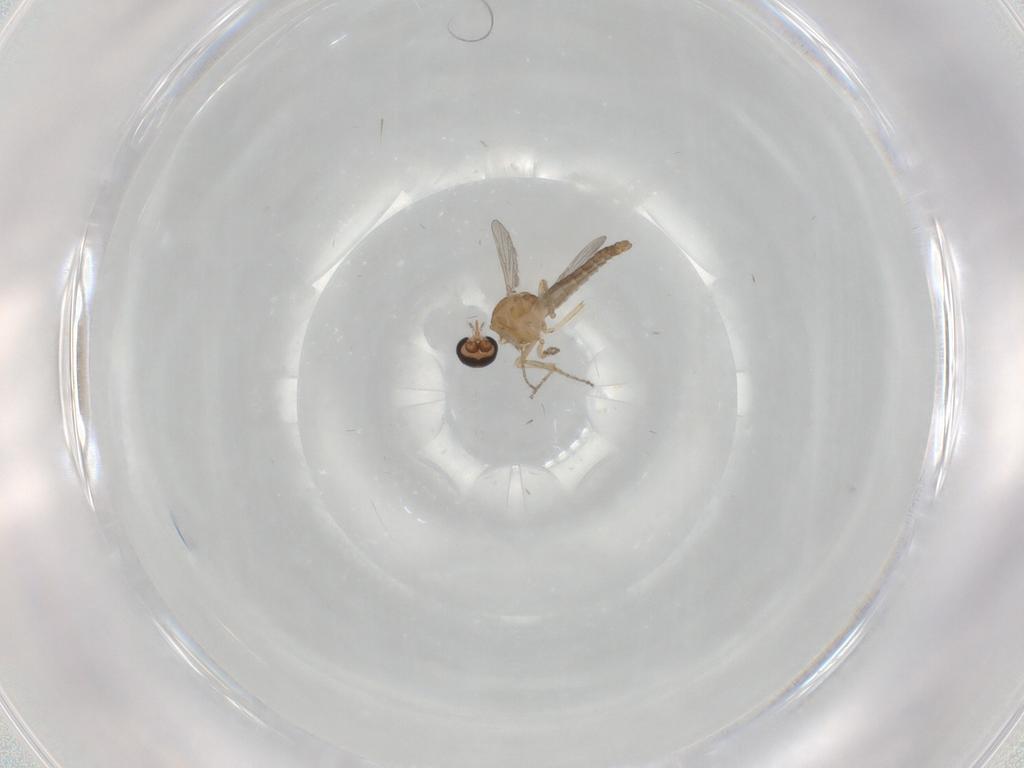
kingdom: Animalia
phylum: Arthropoda
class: Insecta
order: Diptera
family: Ceratopogonidae
